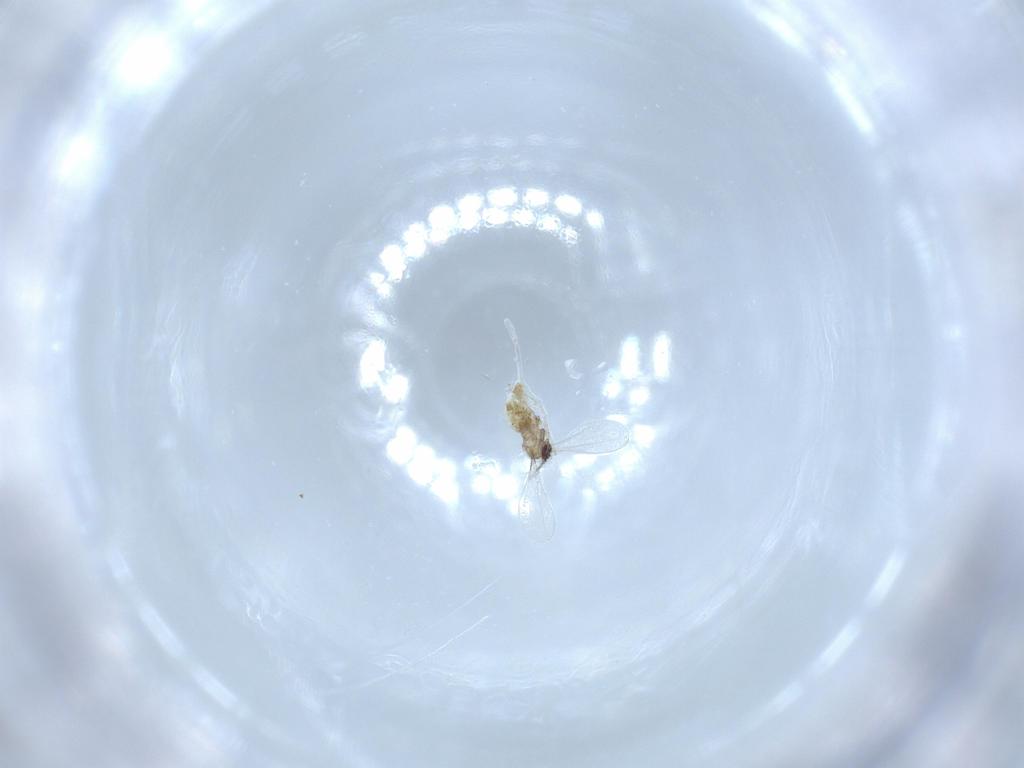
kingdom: Animalia
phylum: Arthropoda
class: Insecta
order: Diptera
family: Cecidomyiidae
